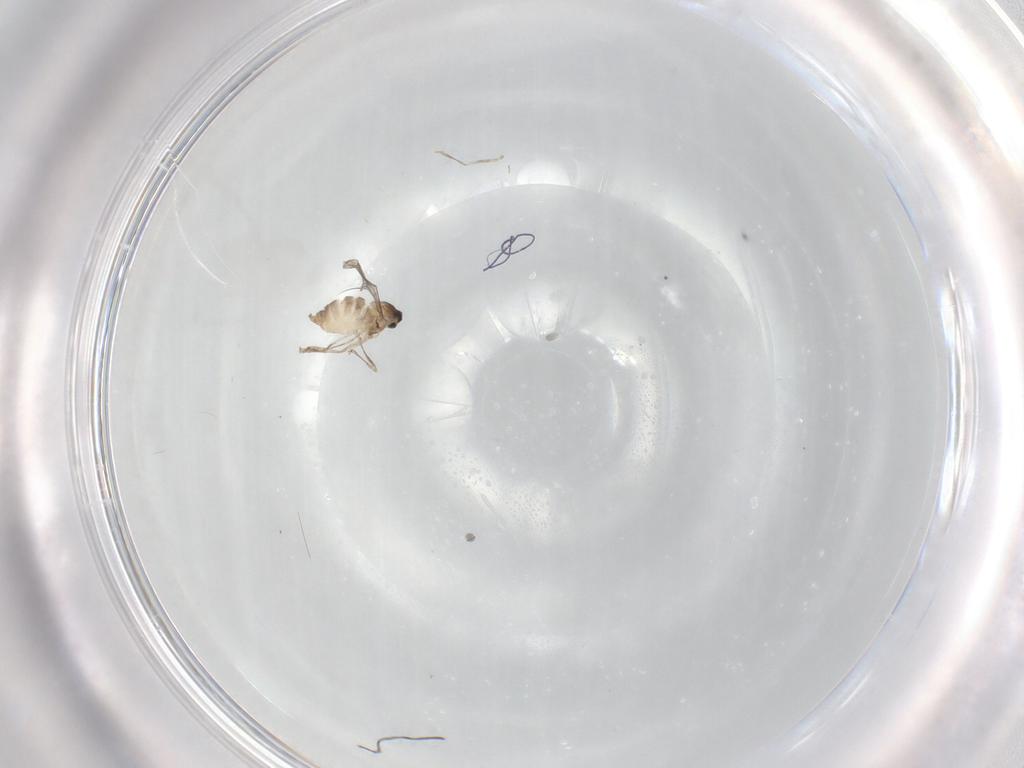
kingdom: Animalia
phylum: Arthropoda
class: Insecta
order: Diptera
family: Cecidomyiidae
